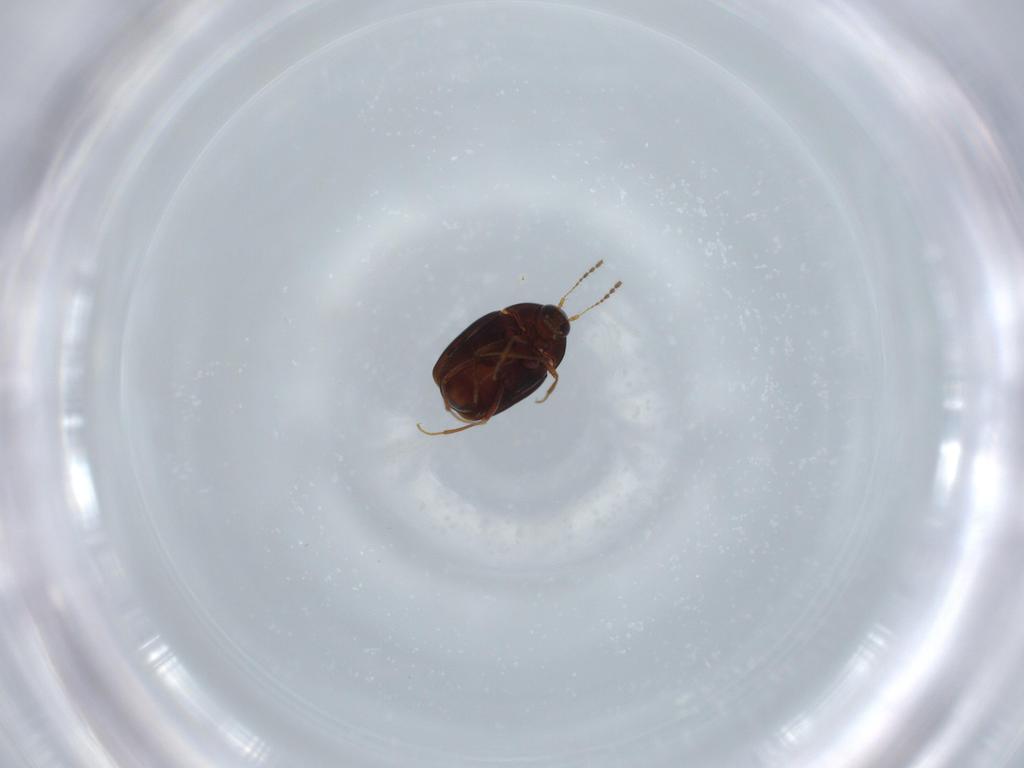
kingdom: Animalia
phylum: Arthropoda
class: Insecta
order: Coleoptera
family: Staphylinidae
